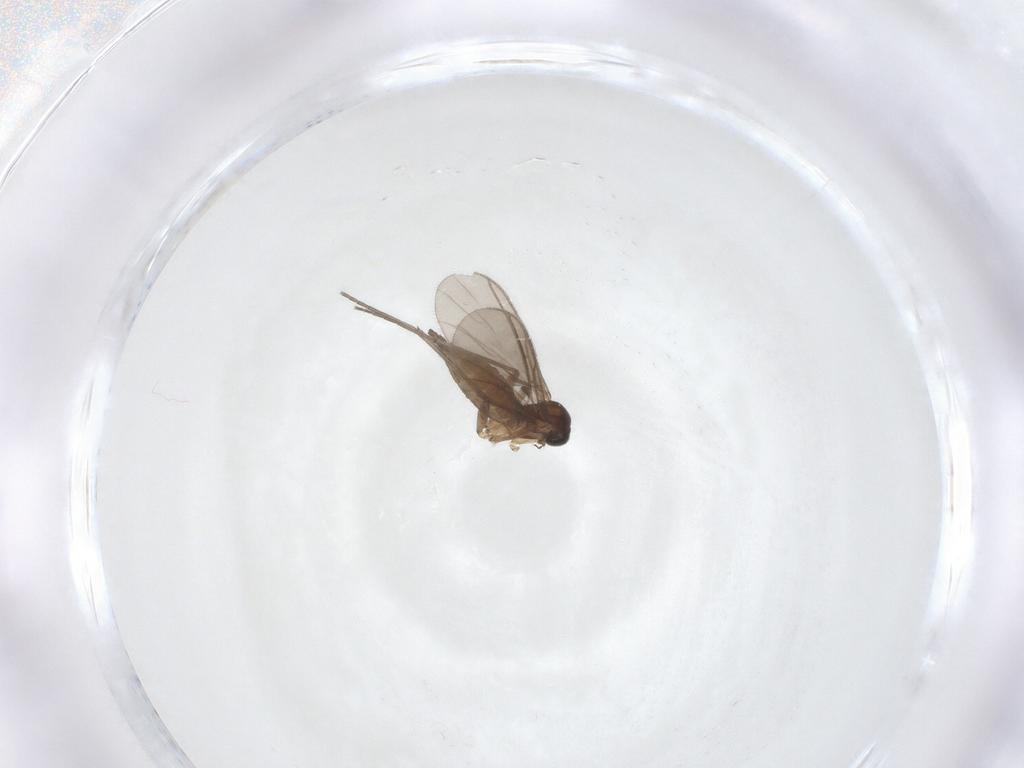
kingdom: Animalia
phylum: Arthropoda
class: Insecta
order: Diptera
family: Sciaridae
